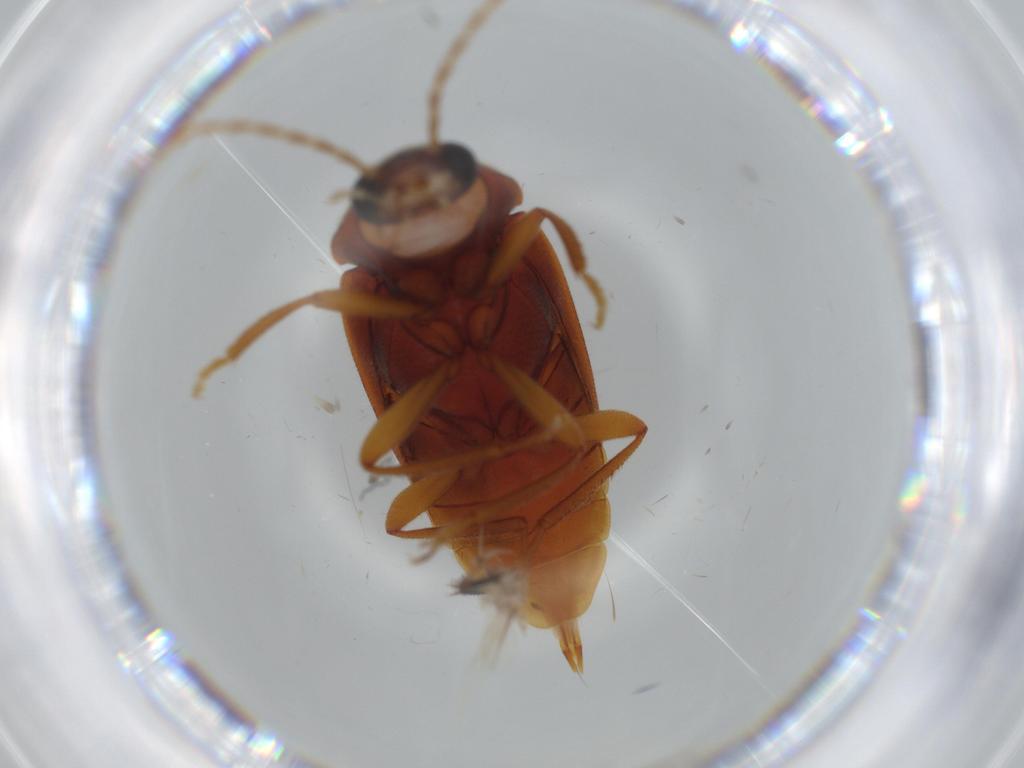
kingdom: Animalia
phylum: Arthropoda
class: Insecta
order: Coleoptera
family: Ptilodactylidae
